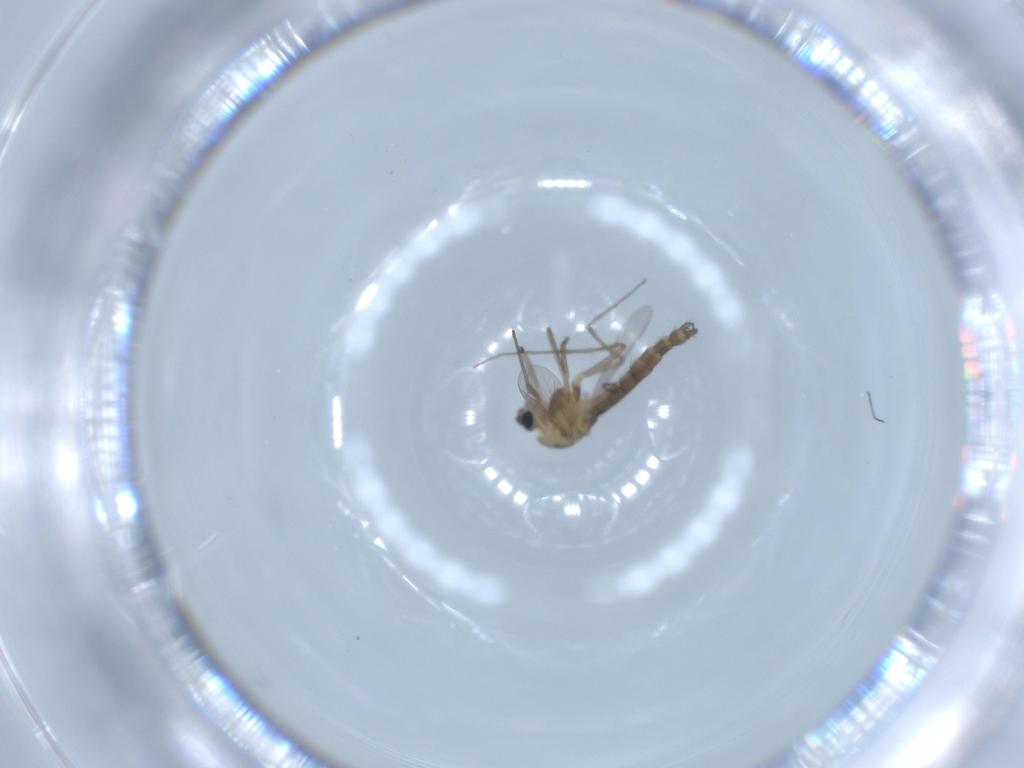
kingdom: Animalia
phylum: Arthropoda
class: Insecta
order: Diptera
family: Chironomidae
